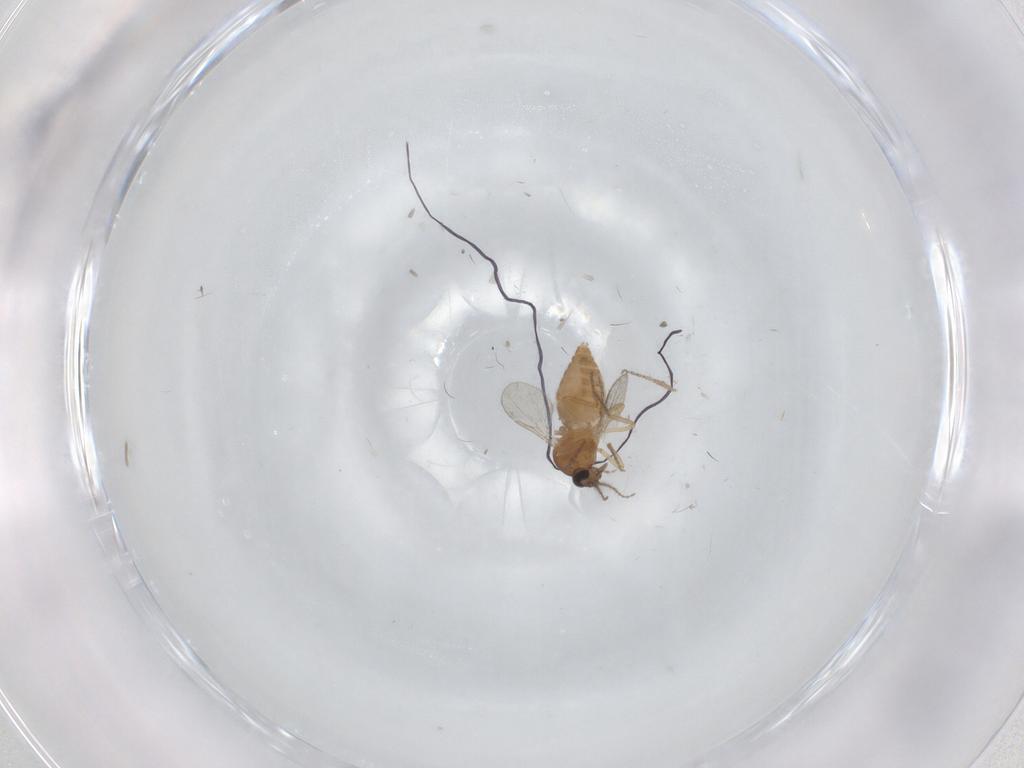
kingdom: Animalia
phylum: Arthropoda
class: Insecta
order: Diptera
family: Ceratopogonidae
